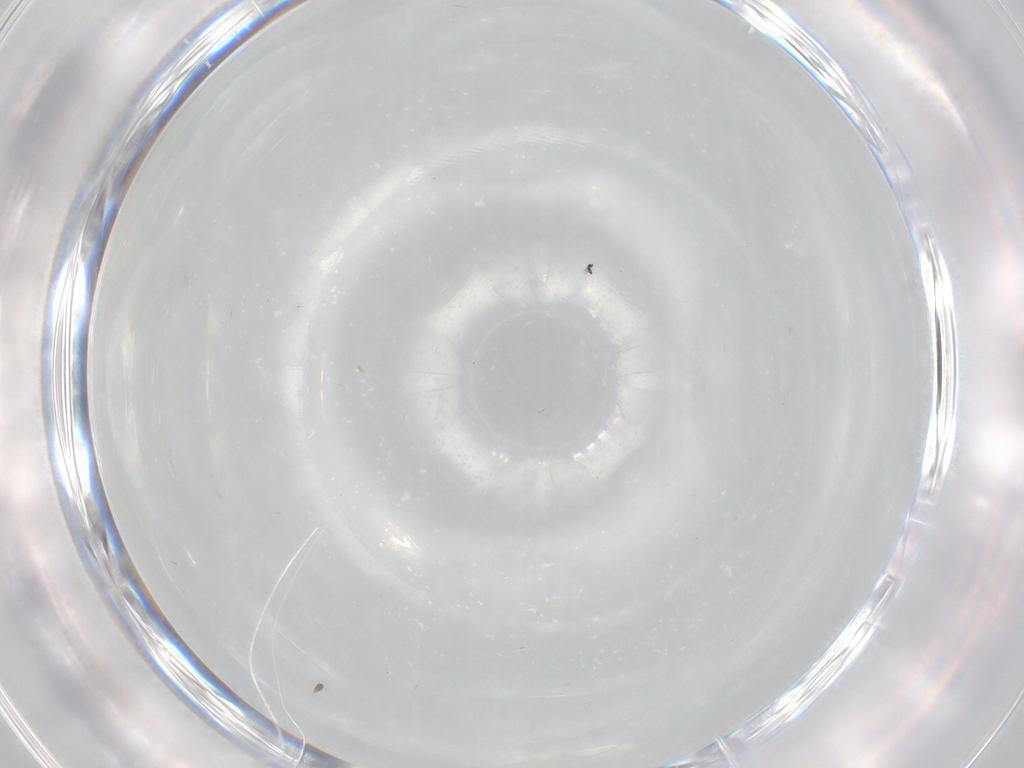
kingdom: Animalia
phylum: Arthropoda
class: Insecta
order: Diptera
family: Cecidomyiidae
